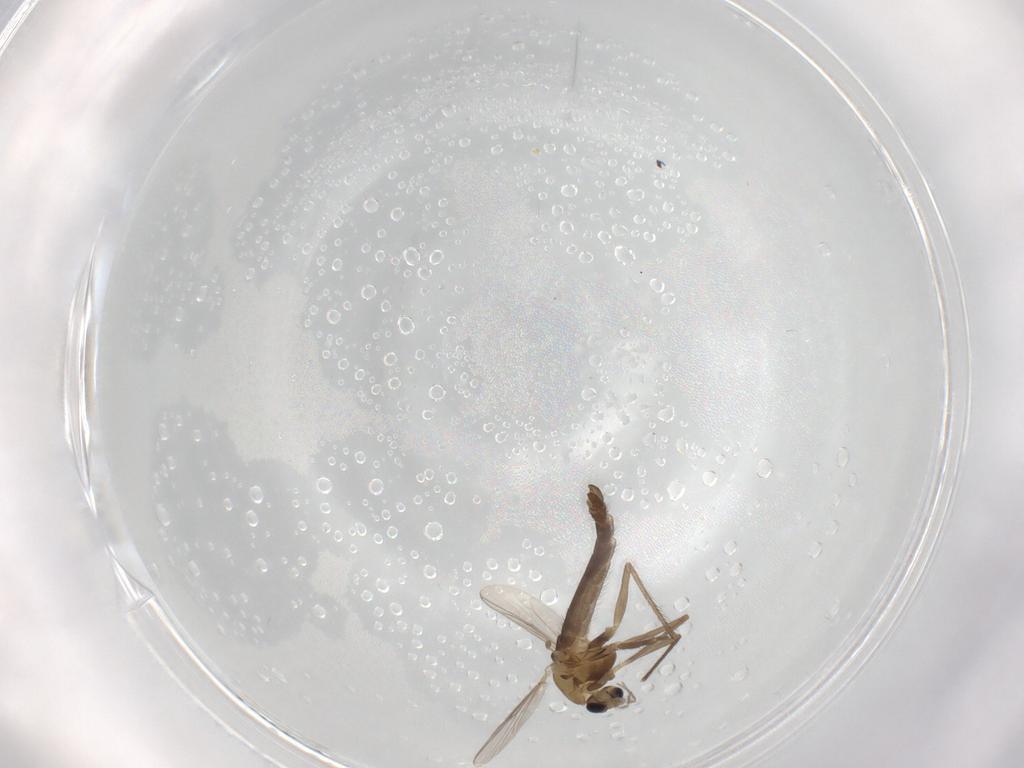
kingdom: Animalia
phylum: Arthropoda
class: Insecta
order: Diptera
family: Chironomidae
